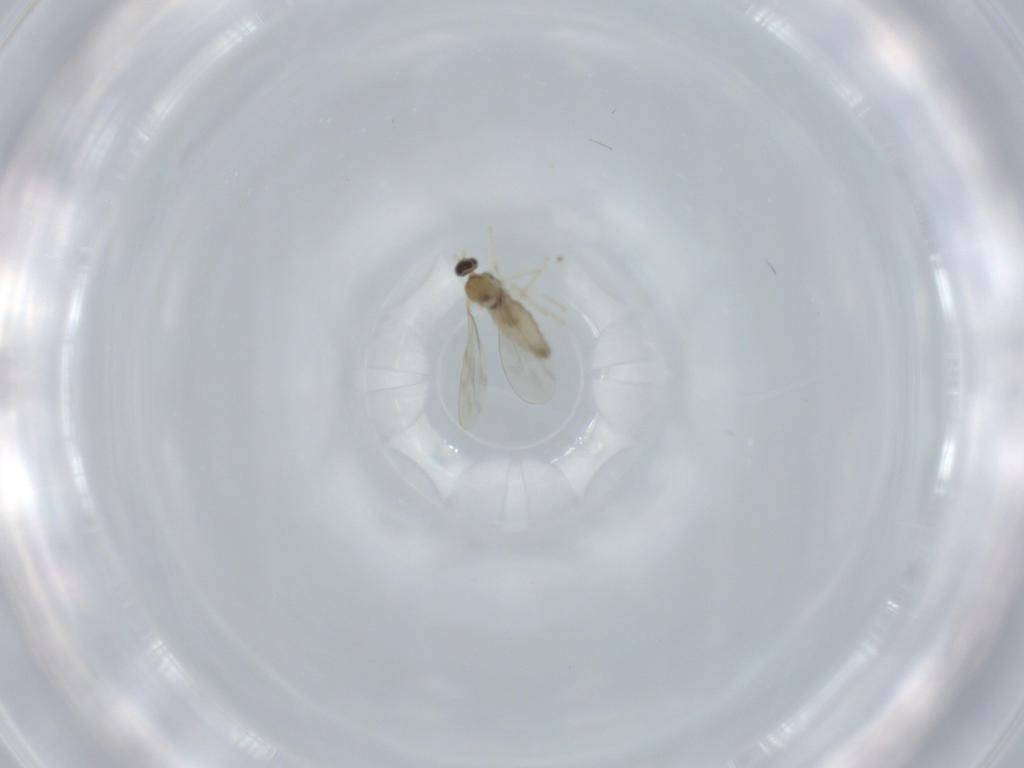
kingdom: Animalia
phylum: Arthropoda
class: Insecta
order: Diptera
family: Cecidomyiidae
